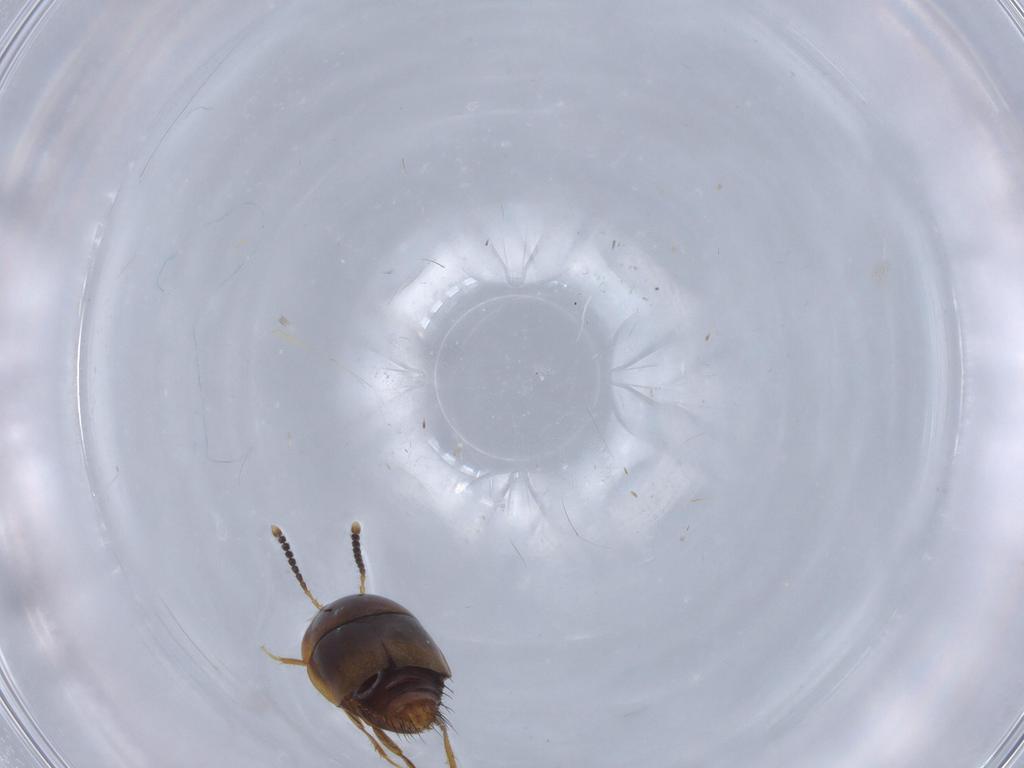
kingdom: Animalia
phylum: Arthropoda
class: Insecta
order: Coleoptera
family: Staphylinidae
